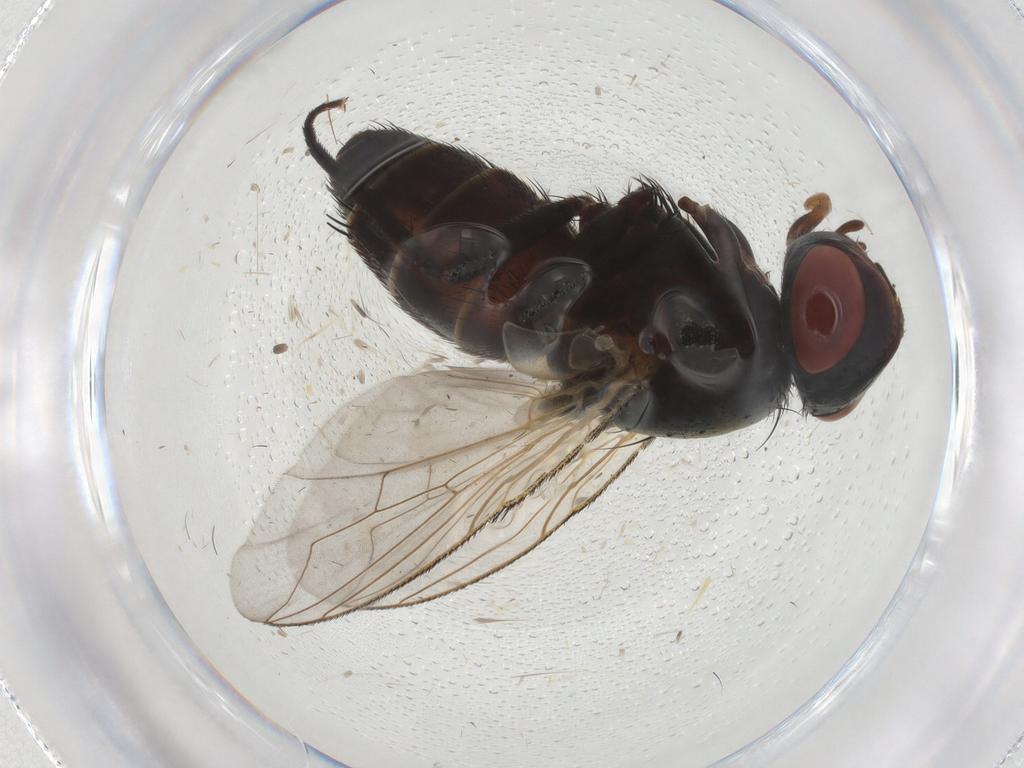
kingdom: Animalia
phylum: Arthropoda
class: Insecta
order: Diptera
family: Sarcophagidae
